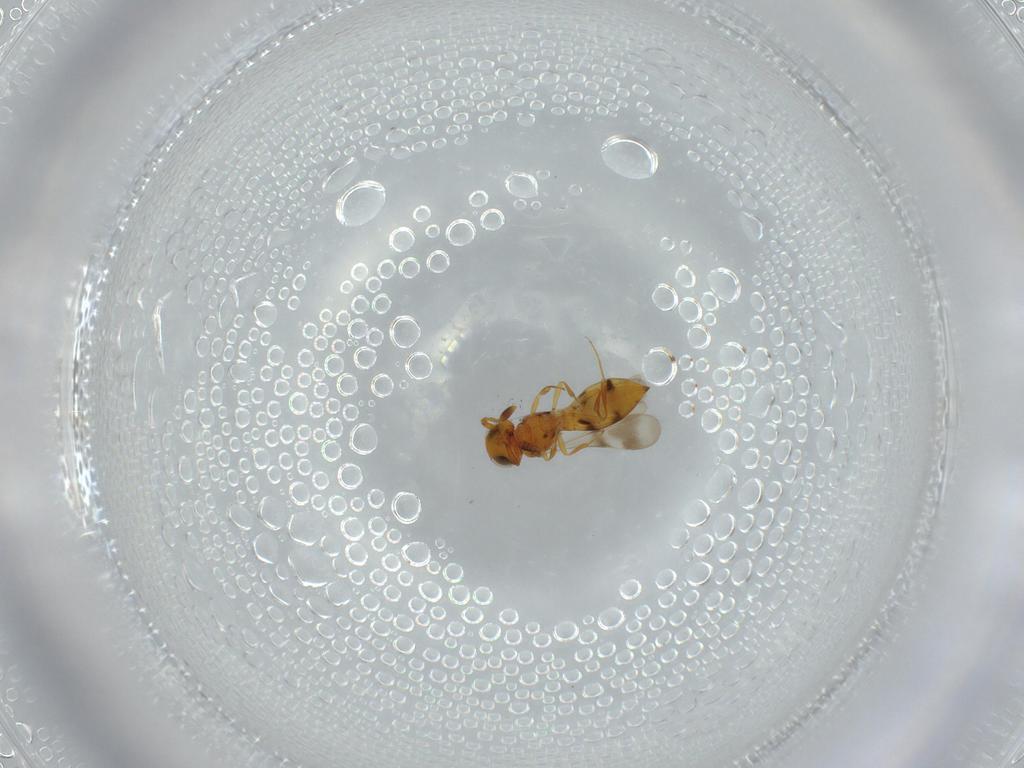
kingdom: Animalia
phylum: Arthropoda
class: Insecta
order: Hymenoptera
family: Scelionidae
